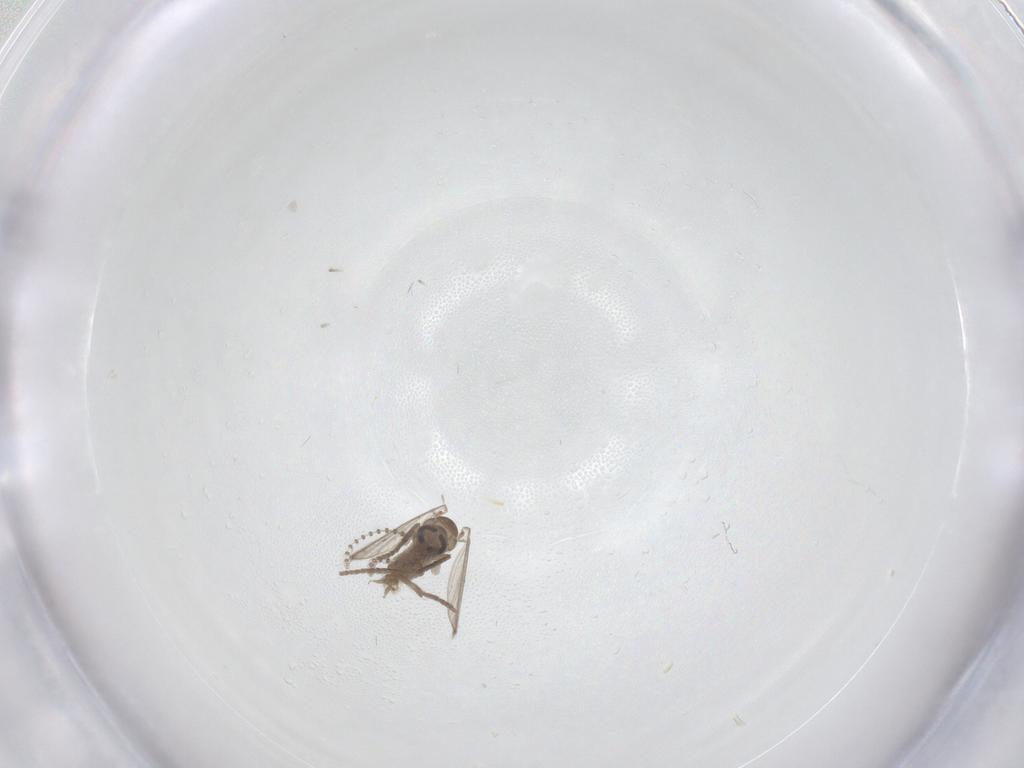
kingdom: Animalia
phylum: Arthropoda
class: Insecta
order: Diptera
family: Psychodidae
